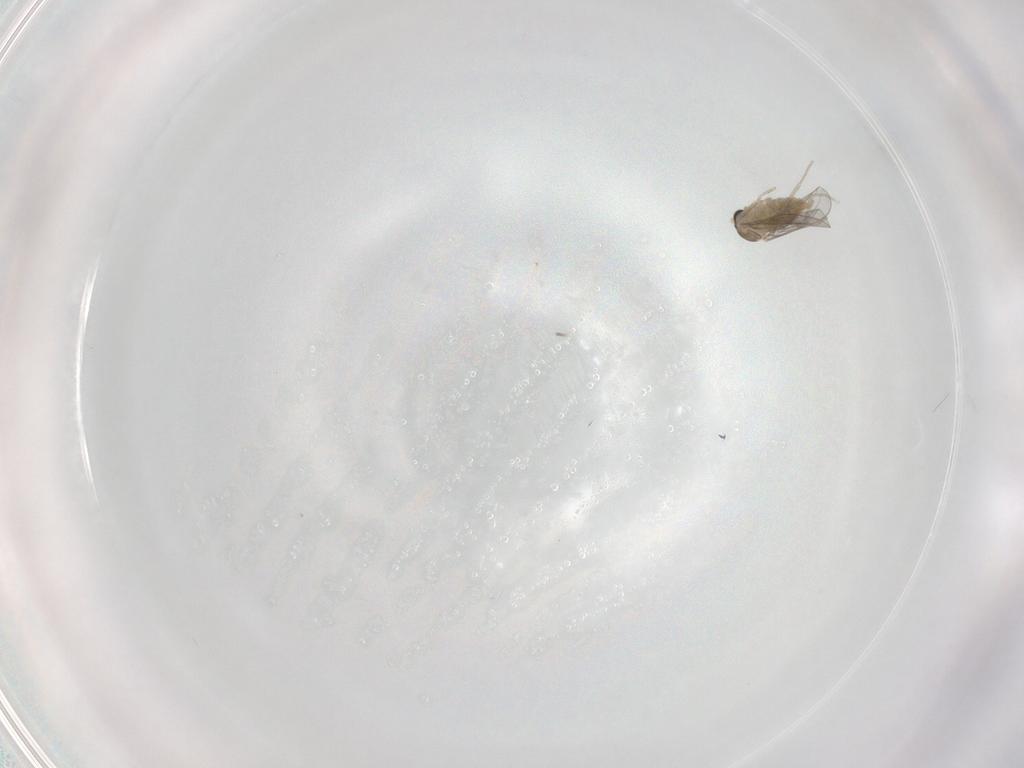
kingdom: Animalia
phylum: Arthropoda
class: Insecta
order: Diptera
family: Cecidomyiidae
